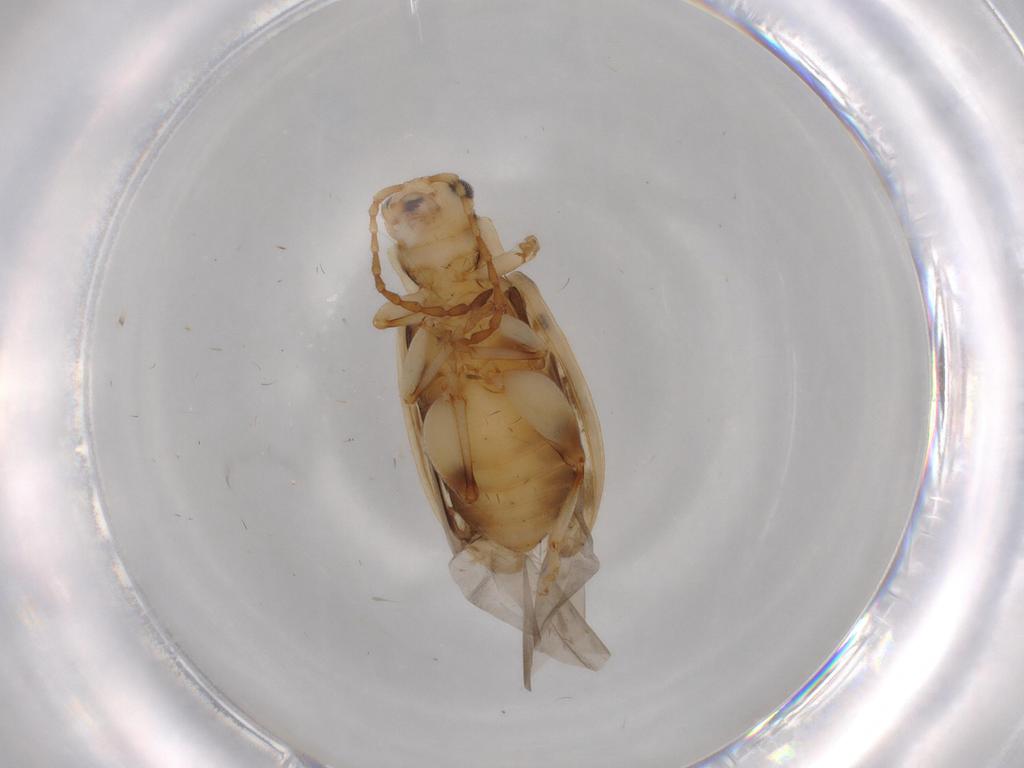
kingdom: Animalia
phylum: Arthropoda
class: Insecta
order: Coleoptera
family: Chrysomelidae
